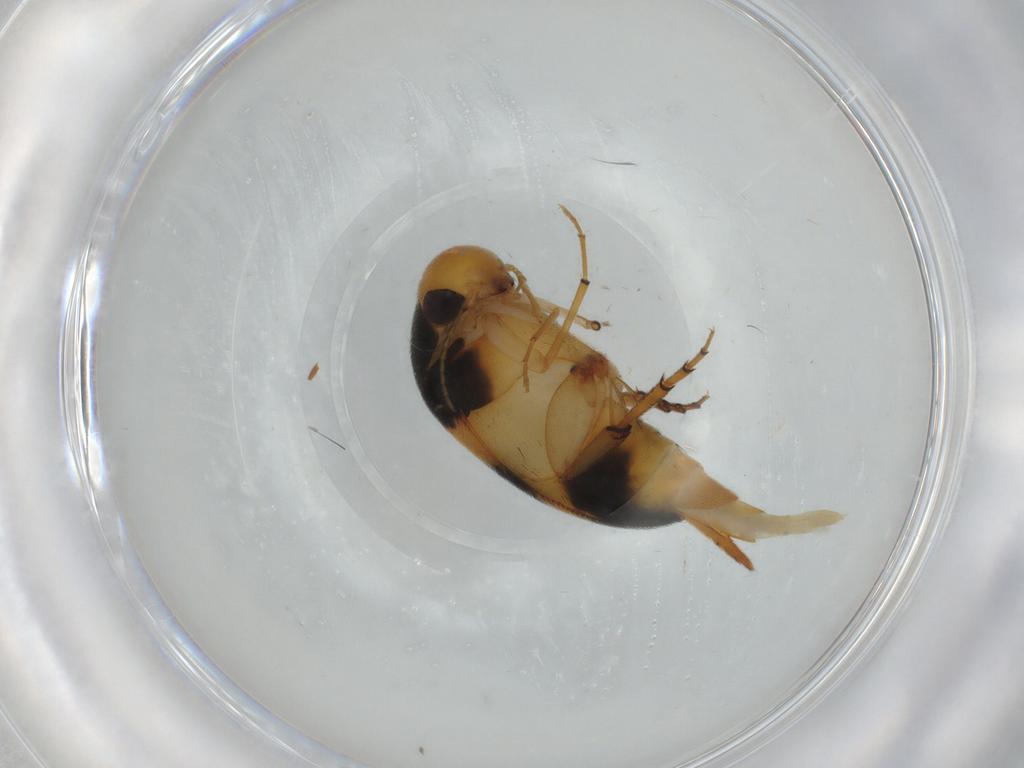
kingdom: Animalia
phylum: Arthropoda
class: Insecta
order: Coleoptera
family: Mordellidae
